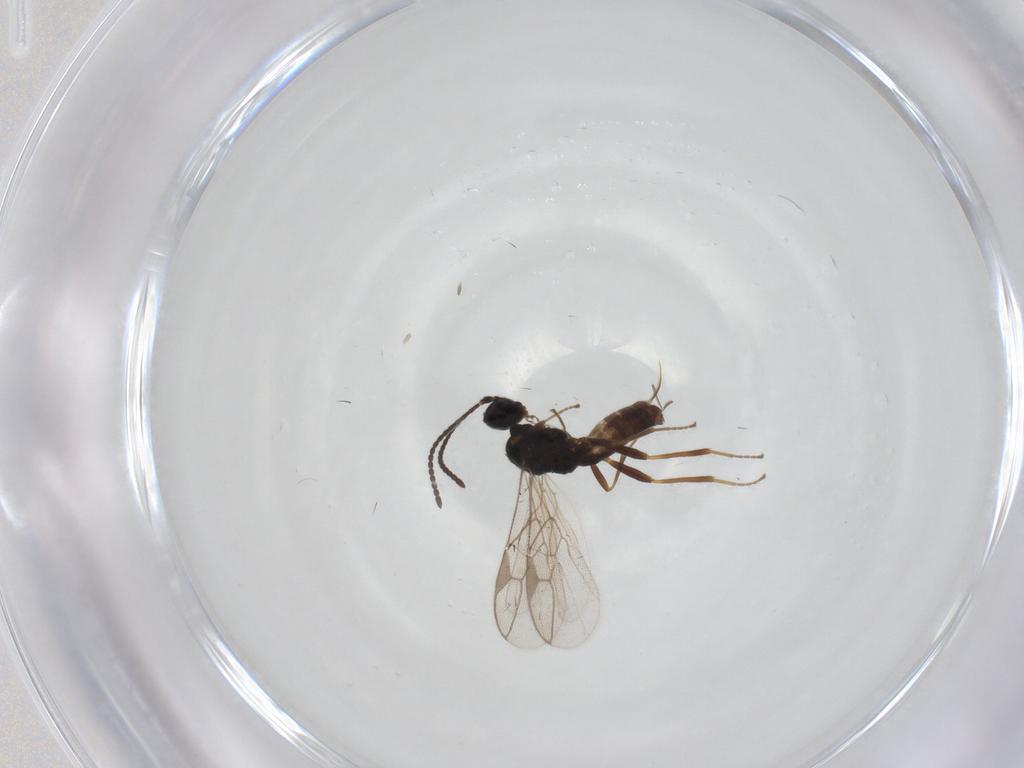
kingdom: Animalia
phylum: Arthropoda
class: Insecta
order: Hymenoptera
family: Braconidae
